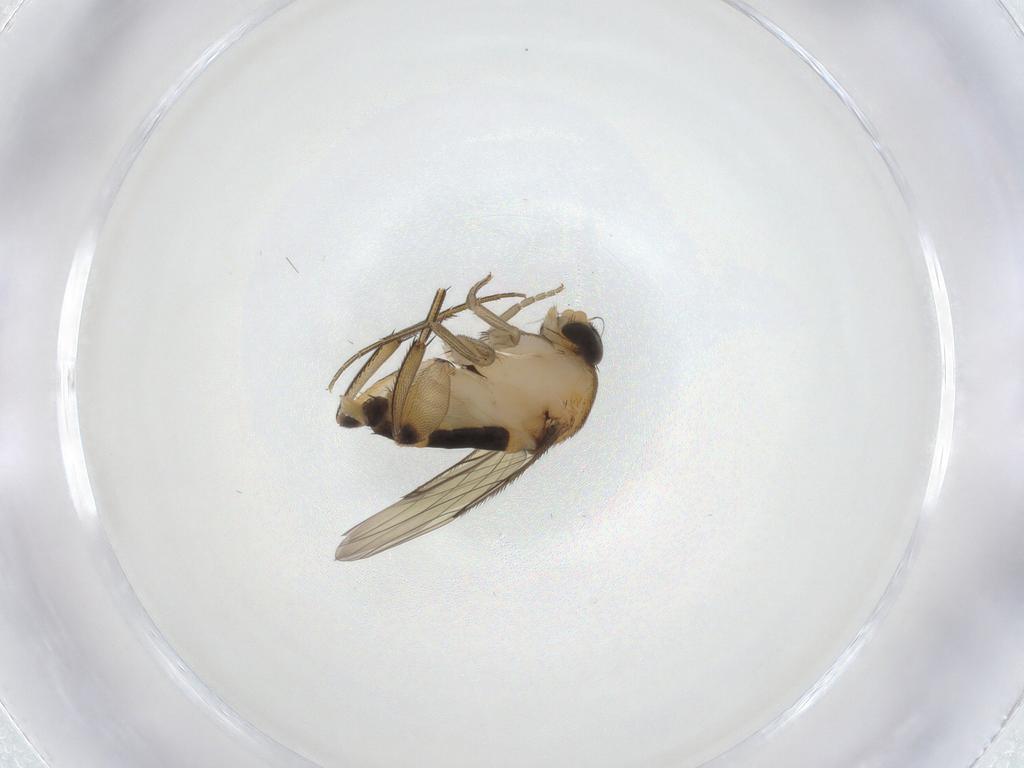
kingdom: Animalia
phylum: Arthropoda
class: Insecta
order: Diptera
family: Phoridae
